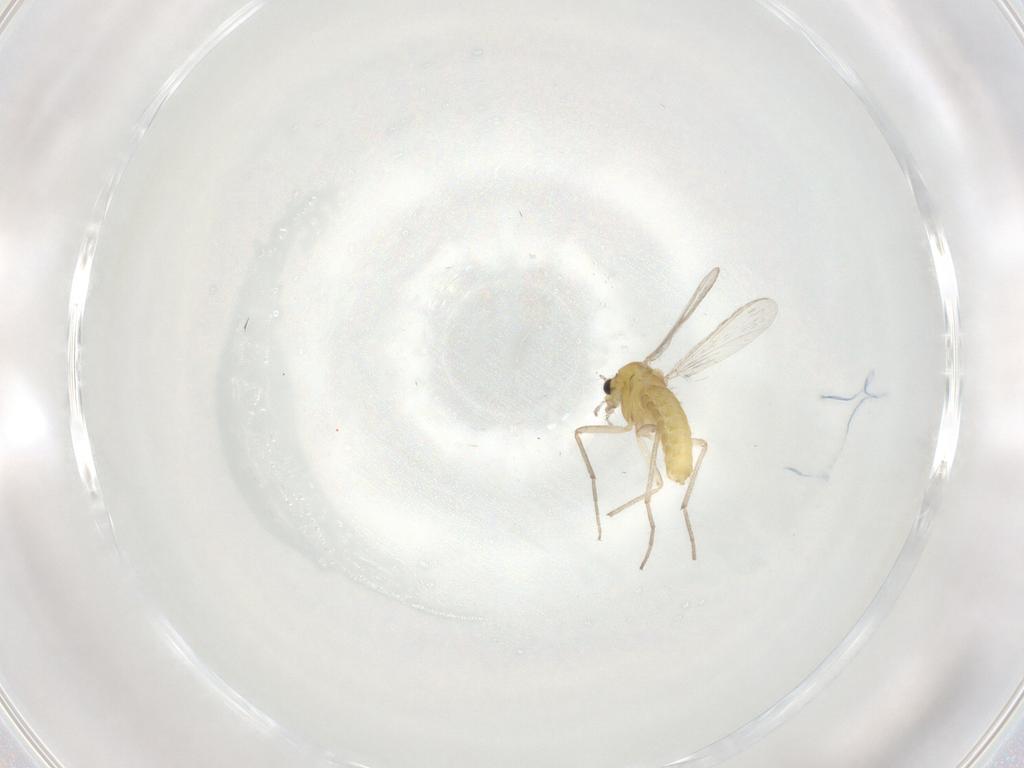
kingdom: Animalia
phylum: Arthropoda
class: Insecta
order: Diptera
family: Chironomidae
